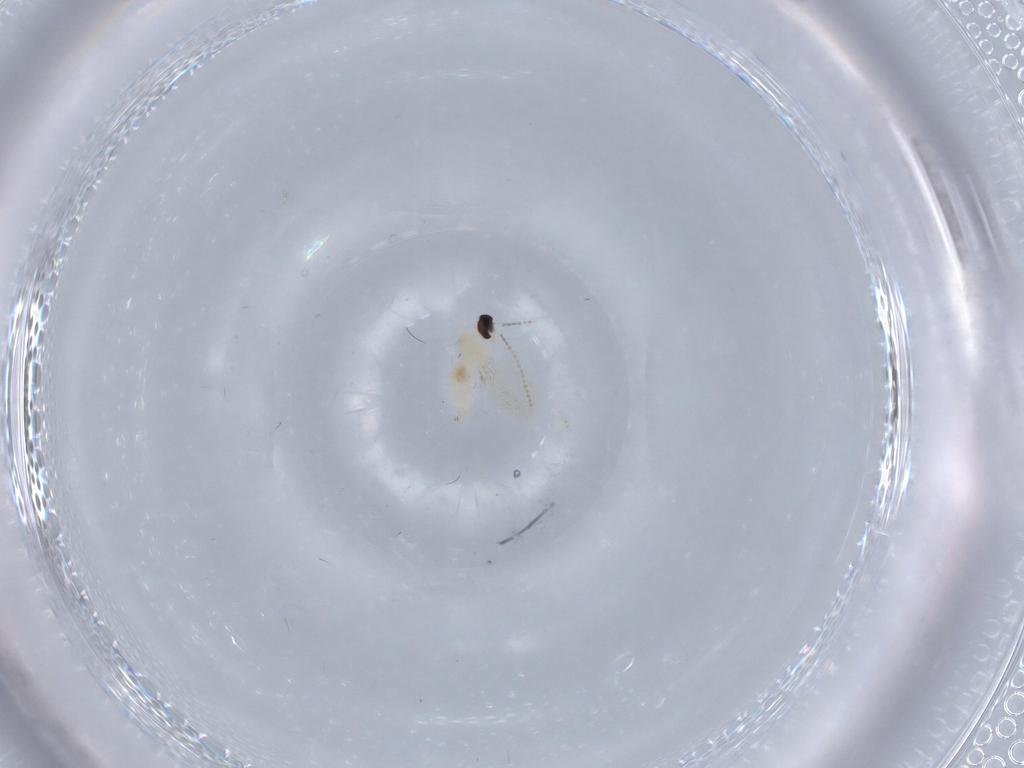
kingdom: Animalia
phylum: Arthropoda
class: Insecta
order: Diptera
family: Cecidomyiidae
